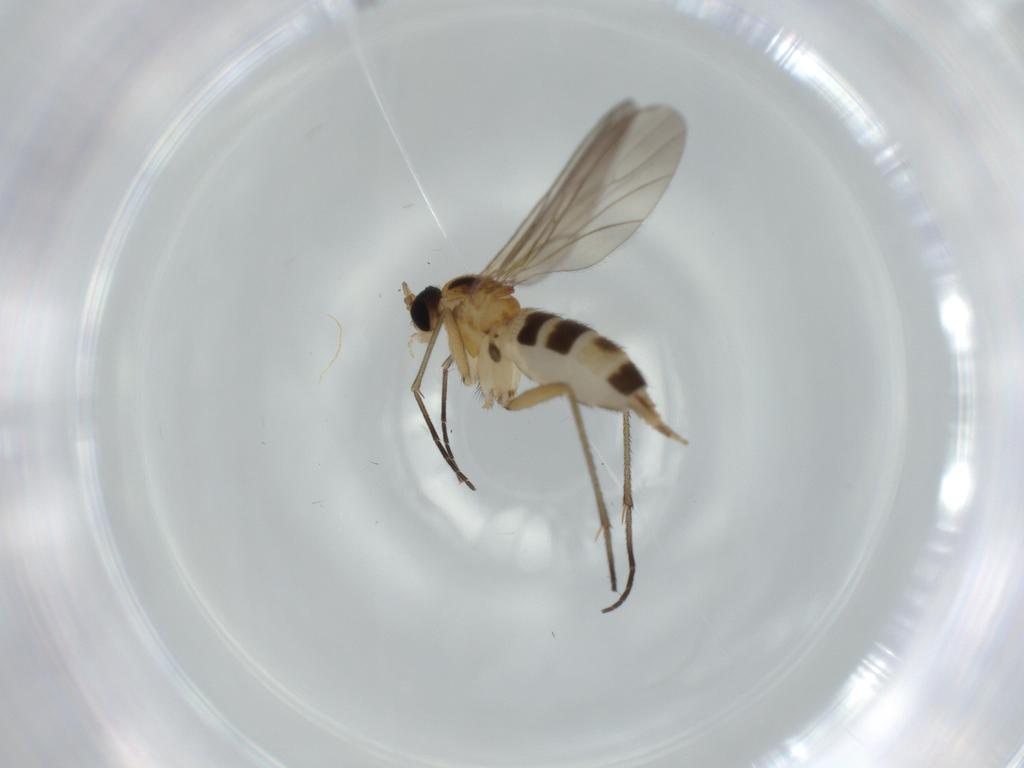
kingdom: Animalia
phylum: Arthropoda
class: Insecta
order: Diptera
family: Sciaridae
